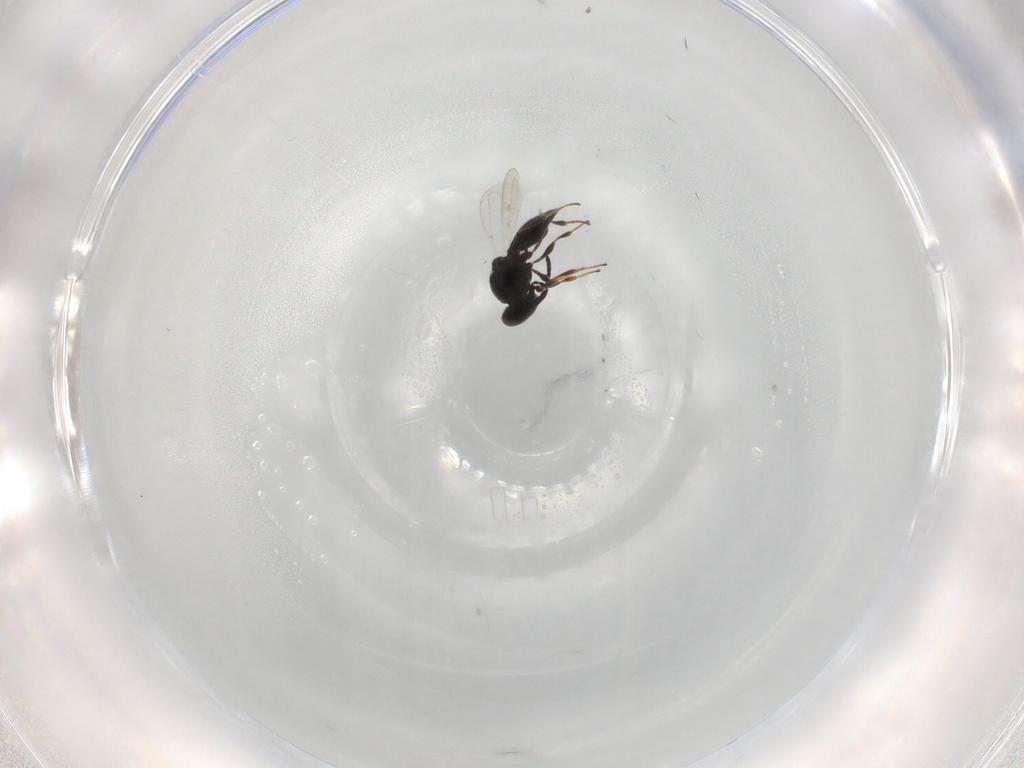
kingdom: Animalia
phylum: Arthropoda
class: Insecta
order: Hymenoptera
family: Platygastridae
